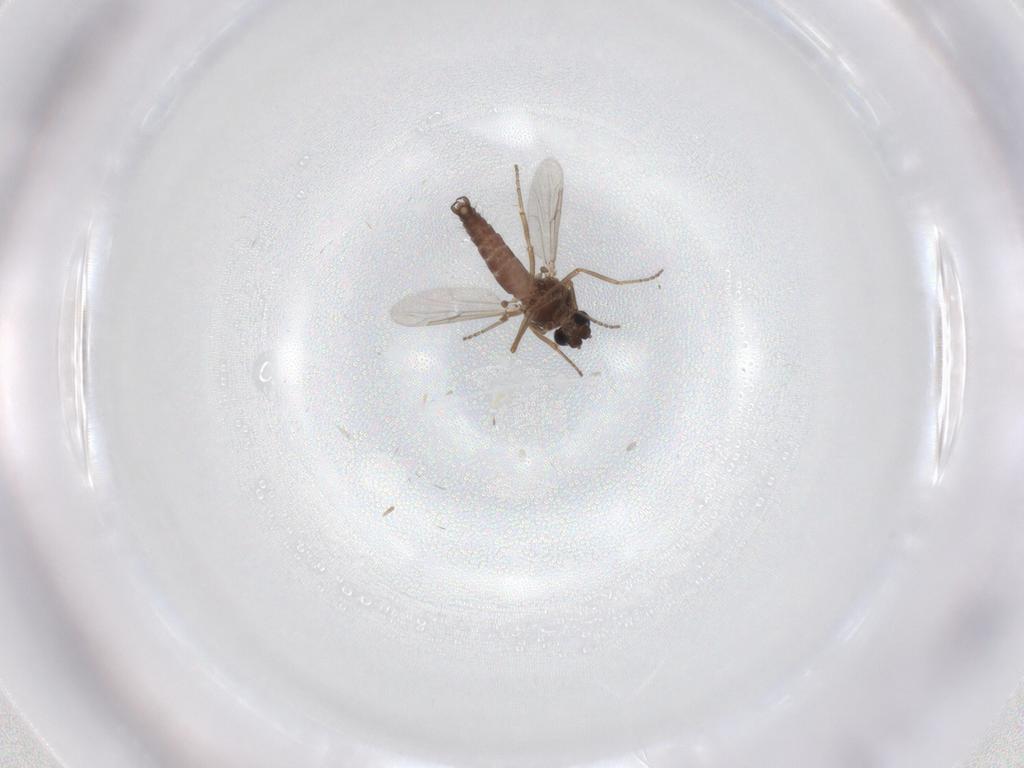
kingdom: Animalia
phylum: Arthropoda
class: Insecta
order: Diptera
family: Ceratopogonidae
